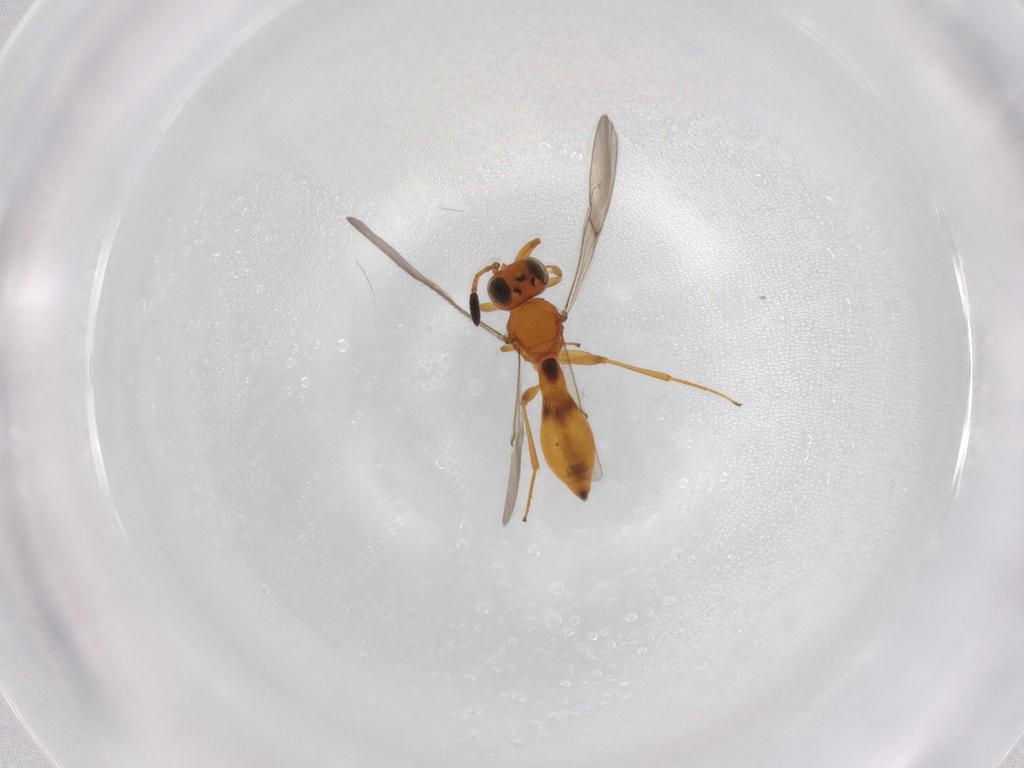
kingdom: Animalia
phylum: Arthropoda
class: Insecta
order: Hymenoptera
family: Scelionidae
